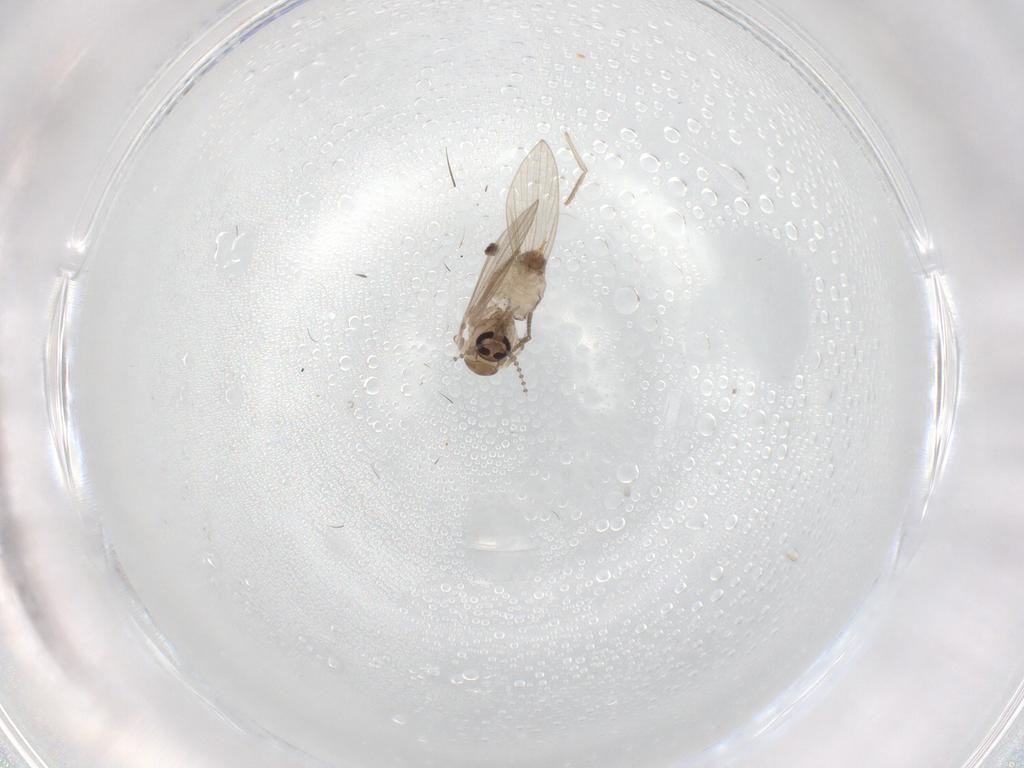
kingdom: Animalia
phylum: Arthropoda
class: Insecta
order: Diptera
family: Psychodidae
